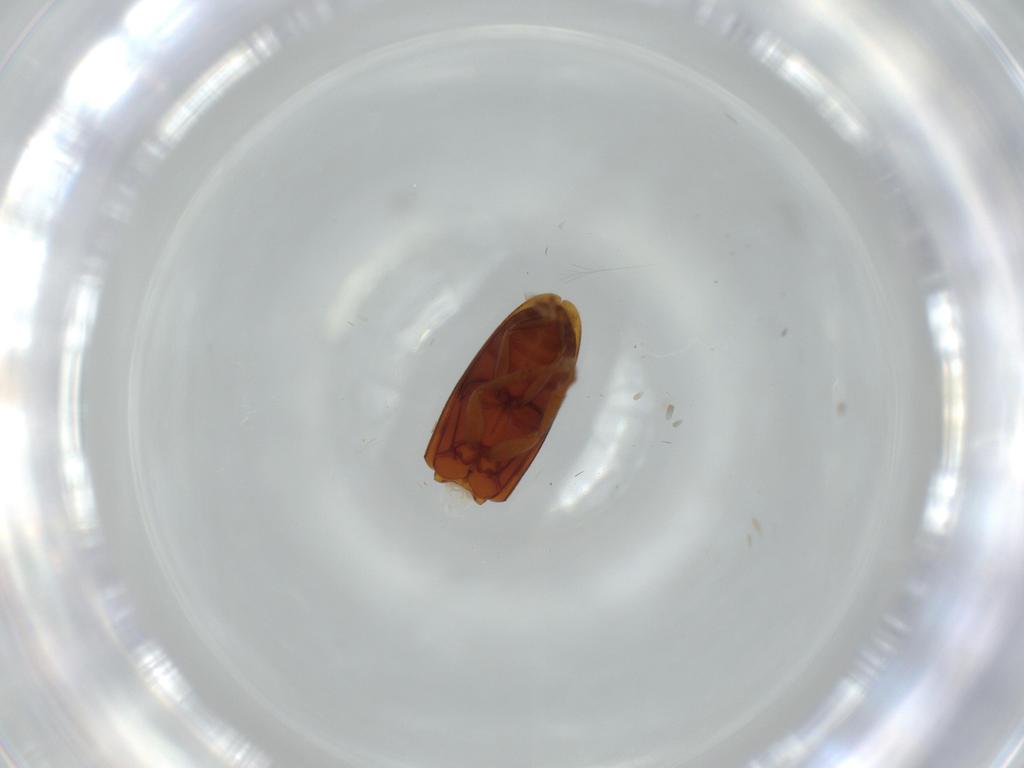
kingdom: Animalia
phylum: Arthropoda
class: Insecta
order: Coleoptera
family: Scraptiidae
